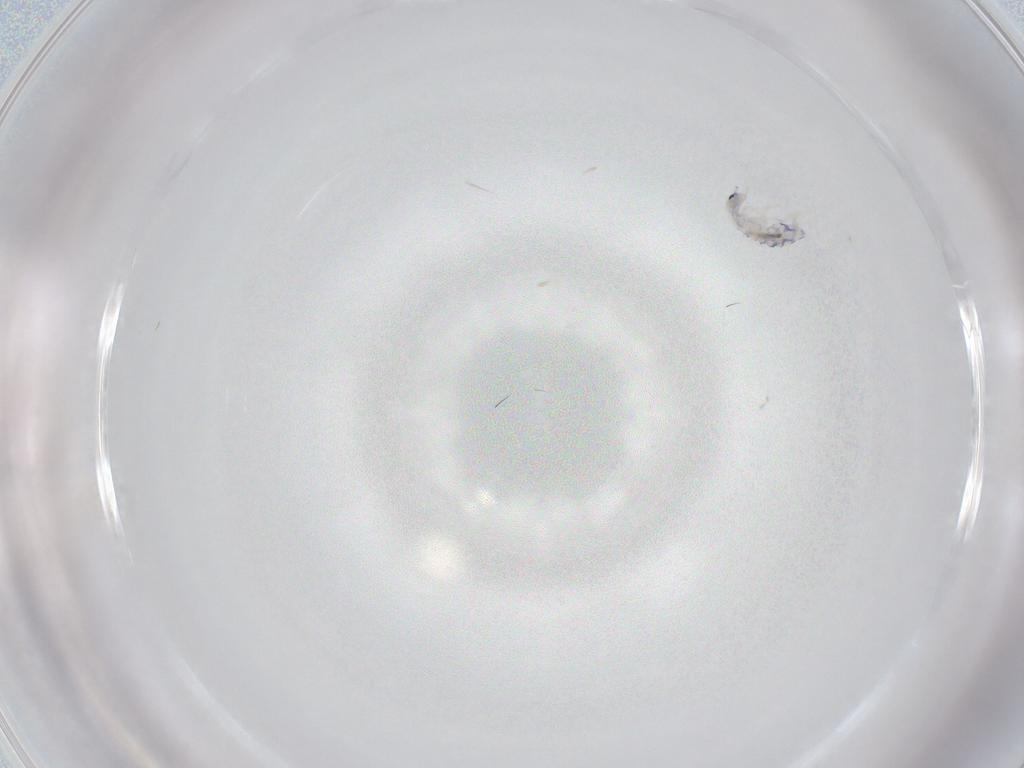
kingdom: Animalia
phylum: Arthropoda
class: Collembola
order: Entomobryomorpha
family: Entomobryidae
